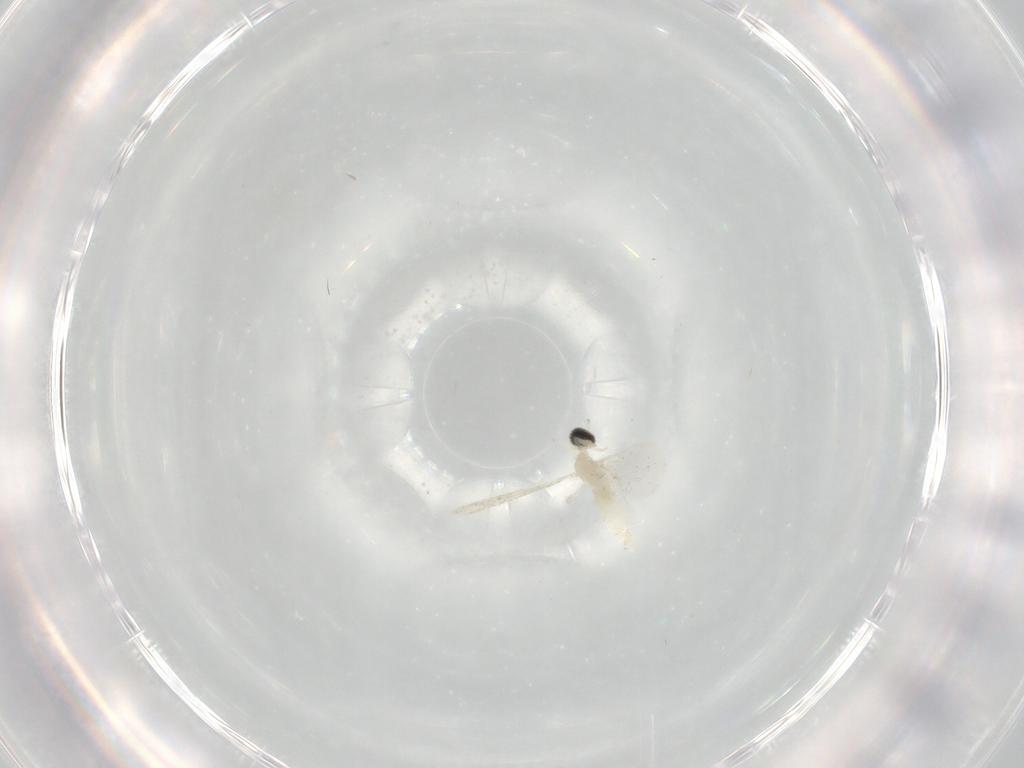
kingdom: Animalia
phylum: Arthropoda
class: Insecta
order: Diptera
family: Cecidomyiidae
